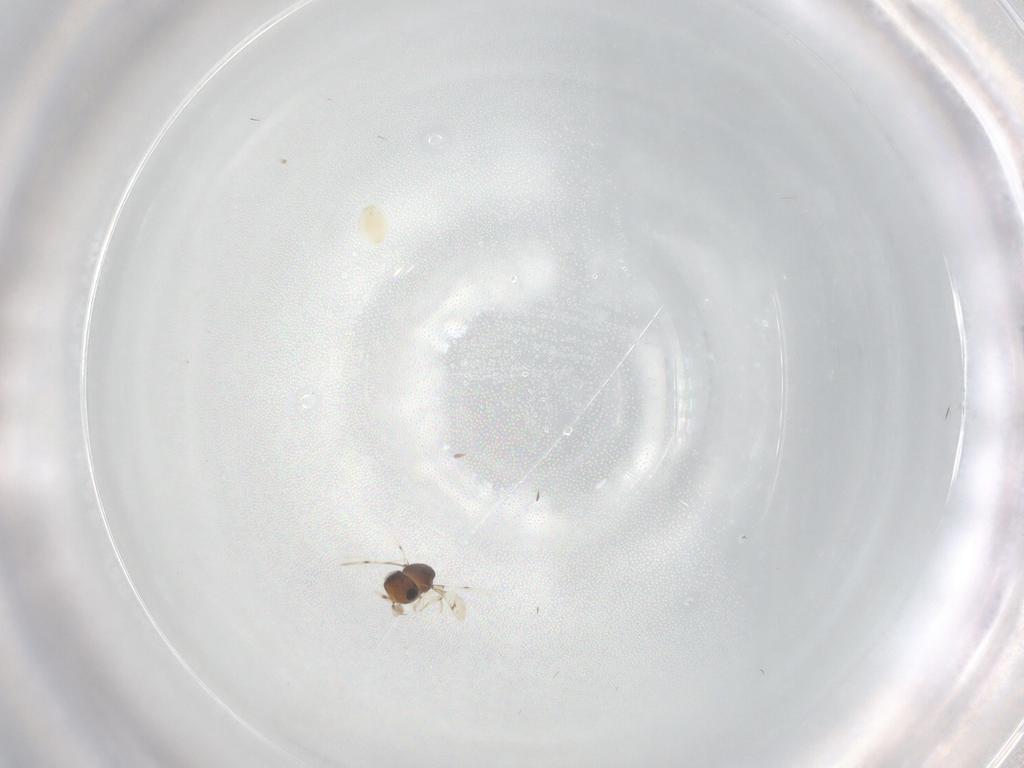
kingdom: Animalia
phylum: Arthropoda
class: Insecta
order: Hymenoptera
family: Scelionidae
